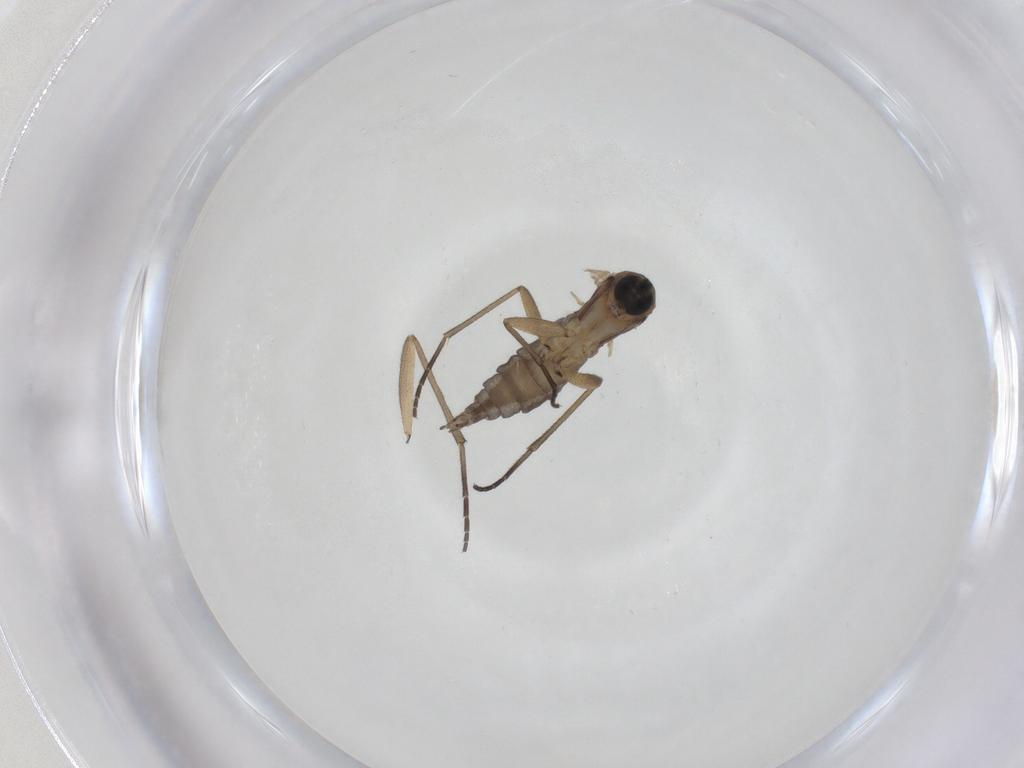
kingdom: Animalia
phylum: Arthropoda
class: Insecta
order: Diptera
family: Sciaridae
